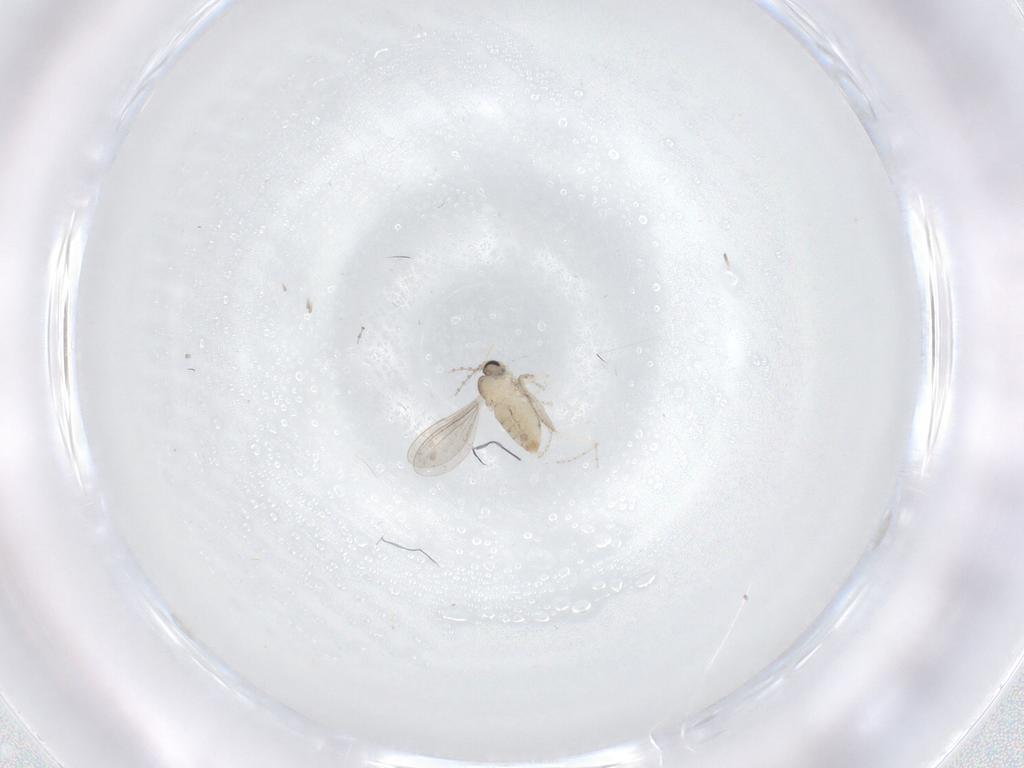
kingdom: Animalia
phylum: Arthropoda
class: Insecta
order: Diptera
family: Cecidomyiidae
